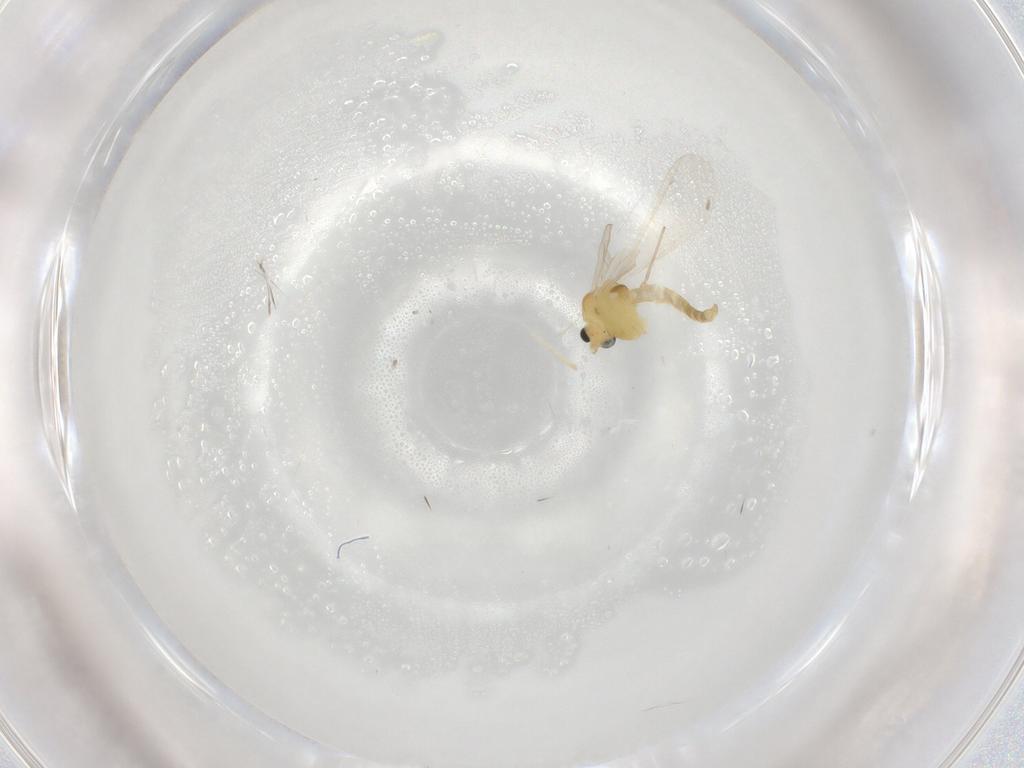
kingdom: Animalia
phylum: Arthropoda
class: Insecta
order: Diptera
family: Chironomidae
